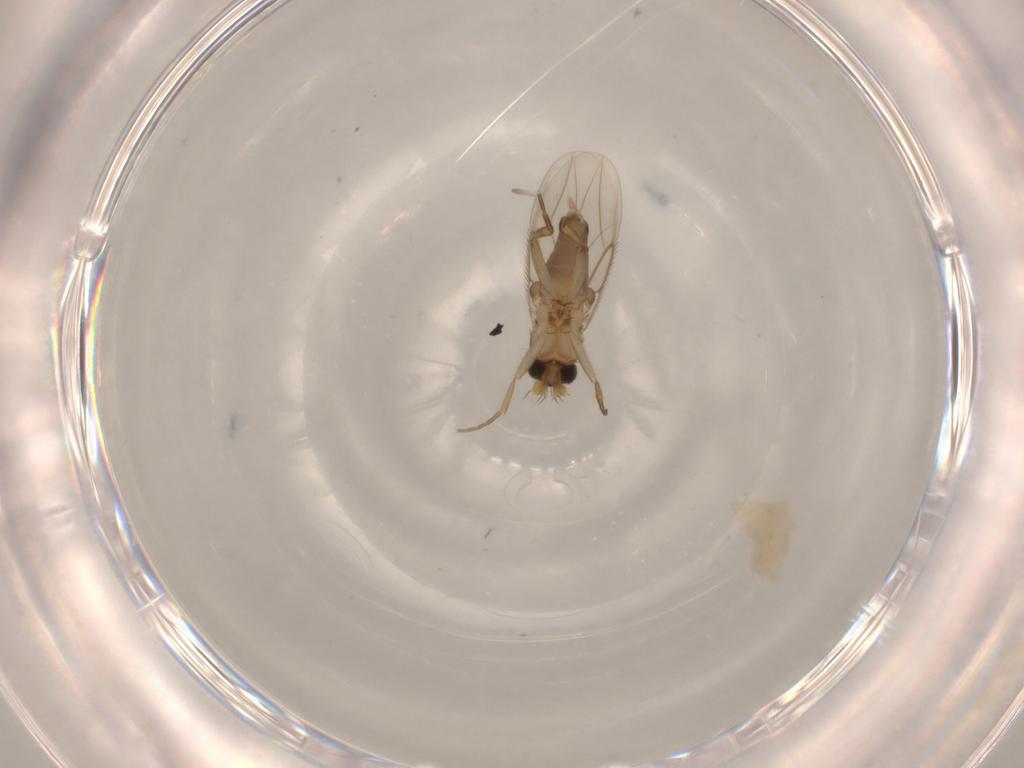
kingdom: Animalia
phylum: Arthropoda
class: Insecta
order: Diptera
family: Phoridae
